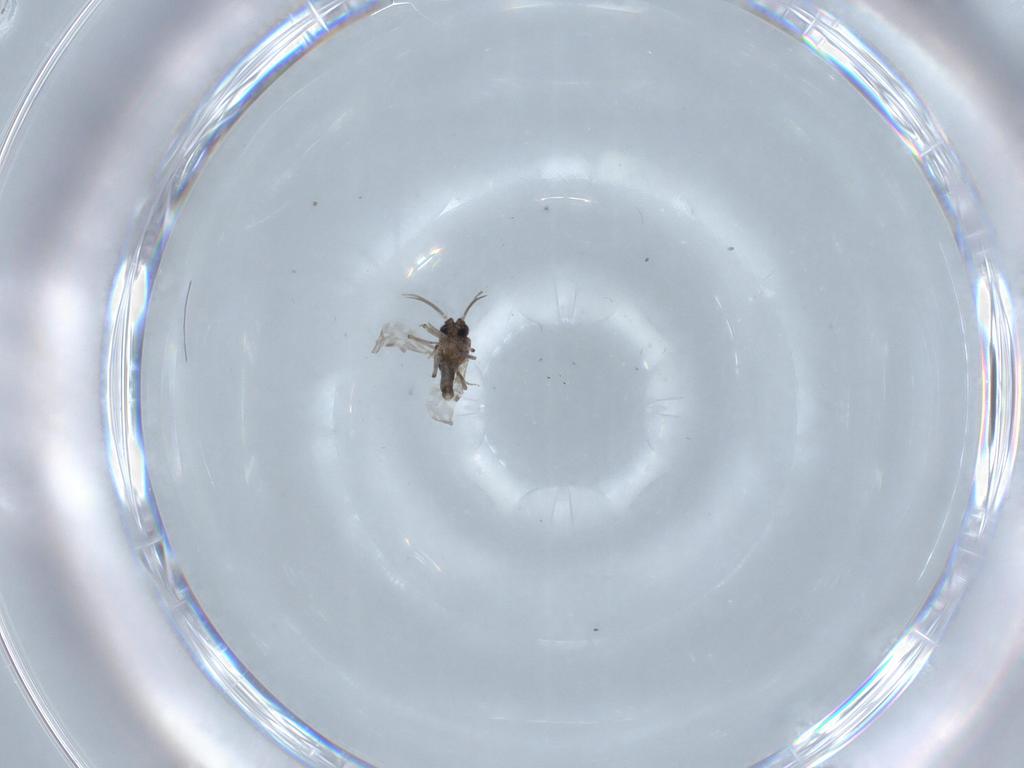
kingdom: Animalia
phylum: Arthropoda
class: Insecta
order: Diptera
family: Ceratopogonidae
